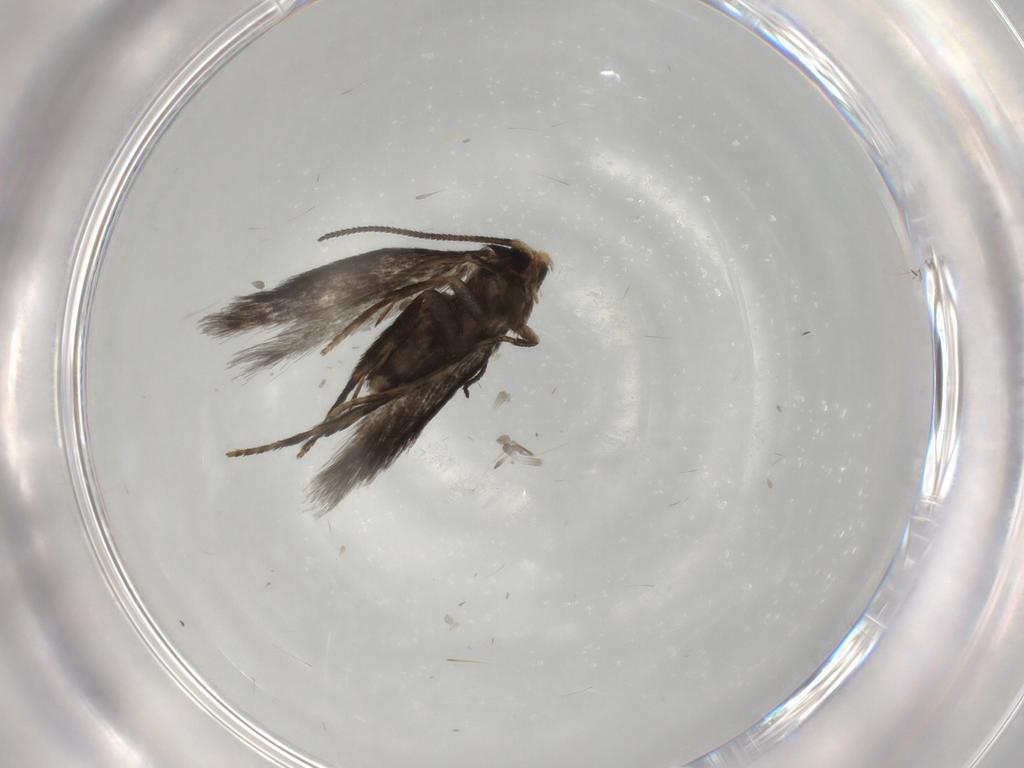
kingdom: Animalia
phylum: Arthropoda
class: Insecta
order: Lepidoptera
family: Nepticulidae
